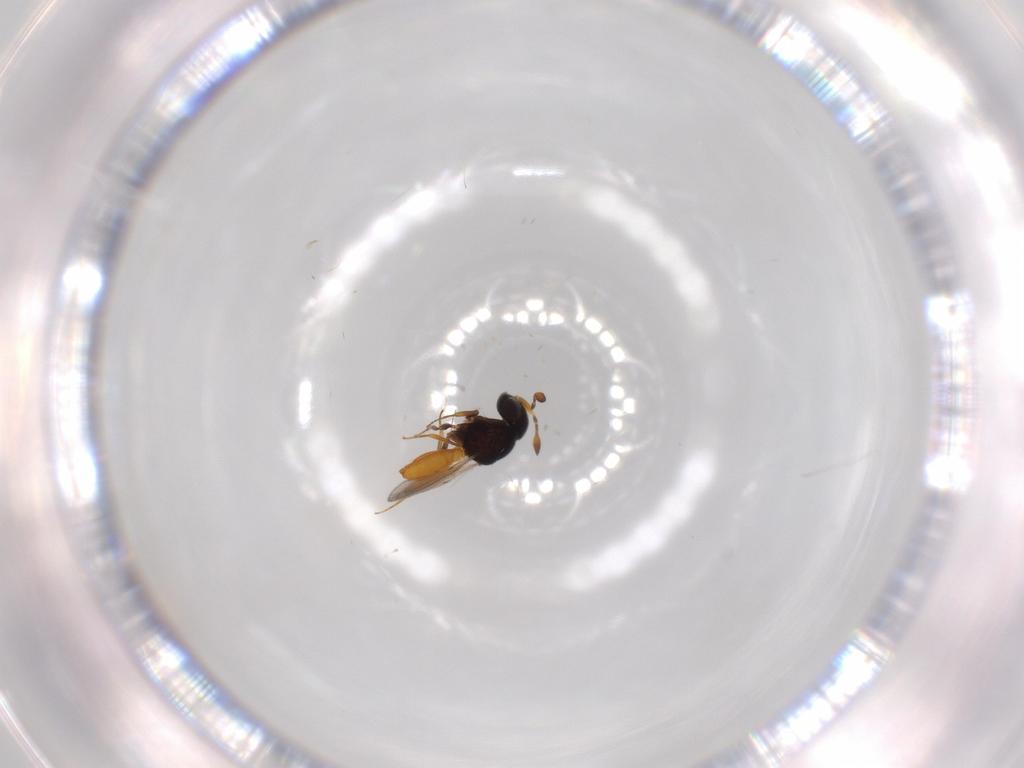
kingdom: Animalia
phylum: Arthropoda
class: Insecta
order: Hymenoptera
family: Scelionidae
